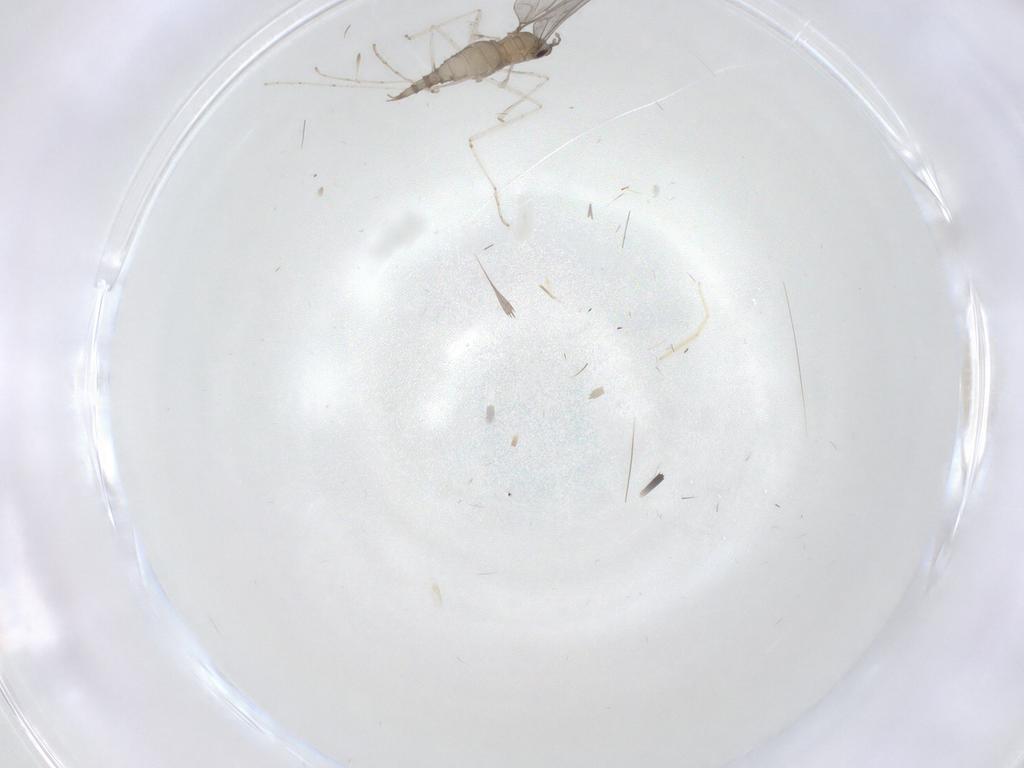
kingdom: Animalia
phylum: Arthropoda
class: Insecta
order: Diptera
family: Cecidomyiidae
